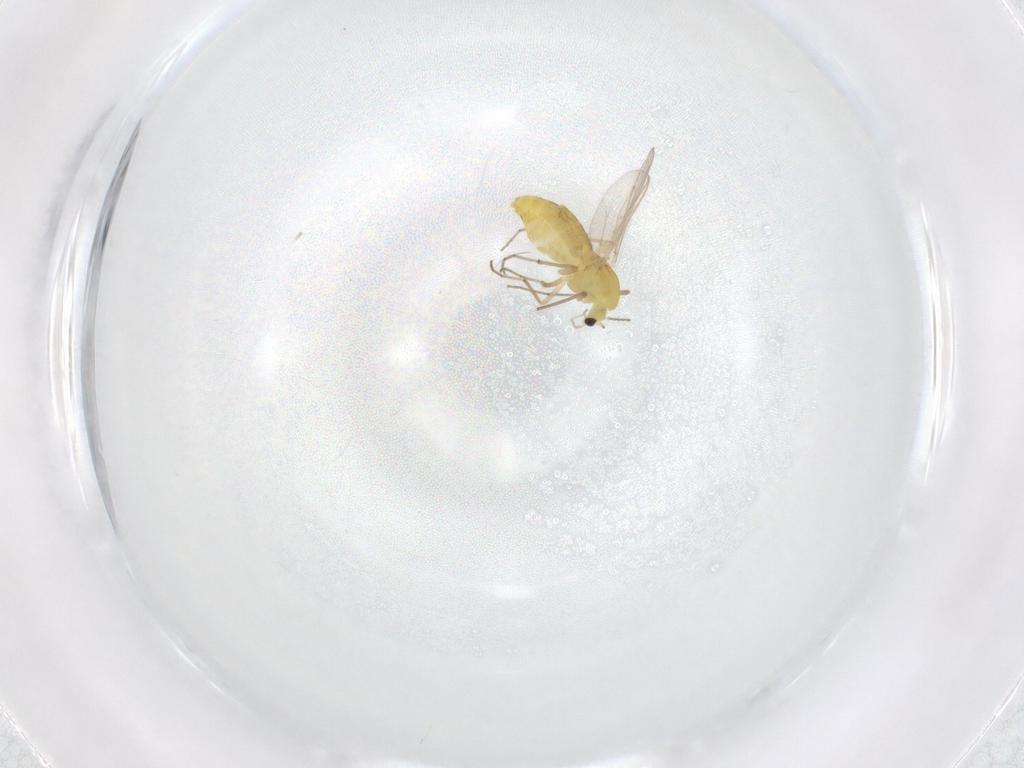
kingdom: Animalia
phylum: Arthropoda
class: Insecta
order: Diptera
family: Chironomidae
